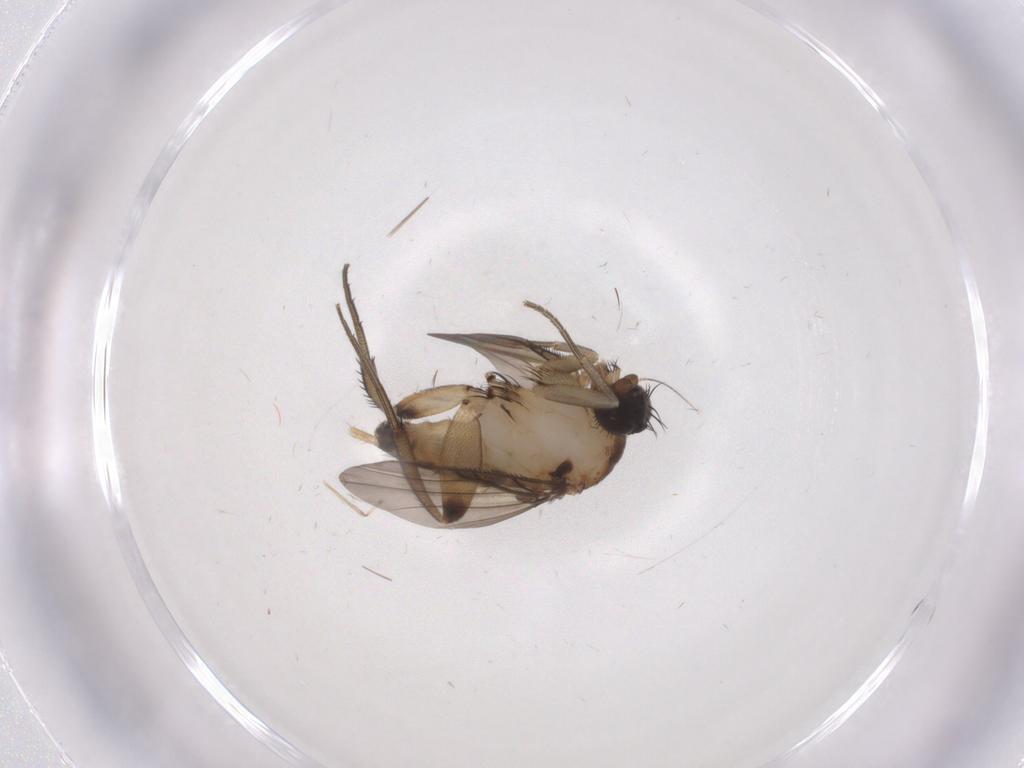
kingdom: Animalia
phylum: Arthropoda
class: Insecta
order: Diptera
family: Phoridae
